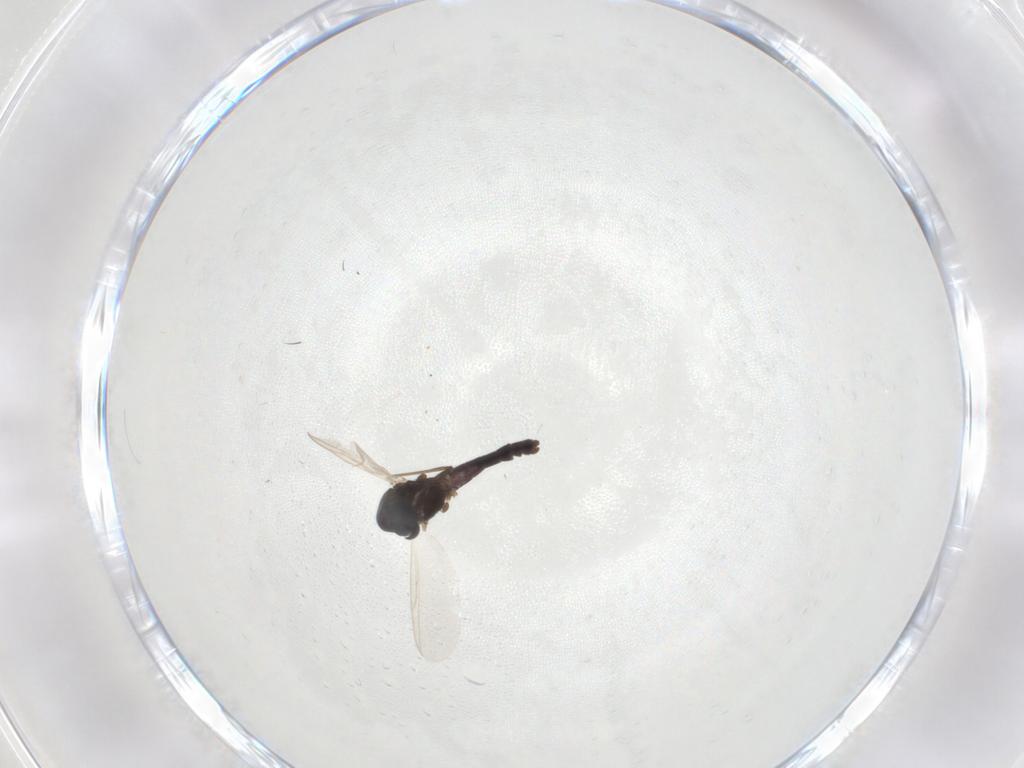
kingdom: Animalia
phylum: Arthropoda
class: Insecta
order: Diptera
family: Chironomidae
